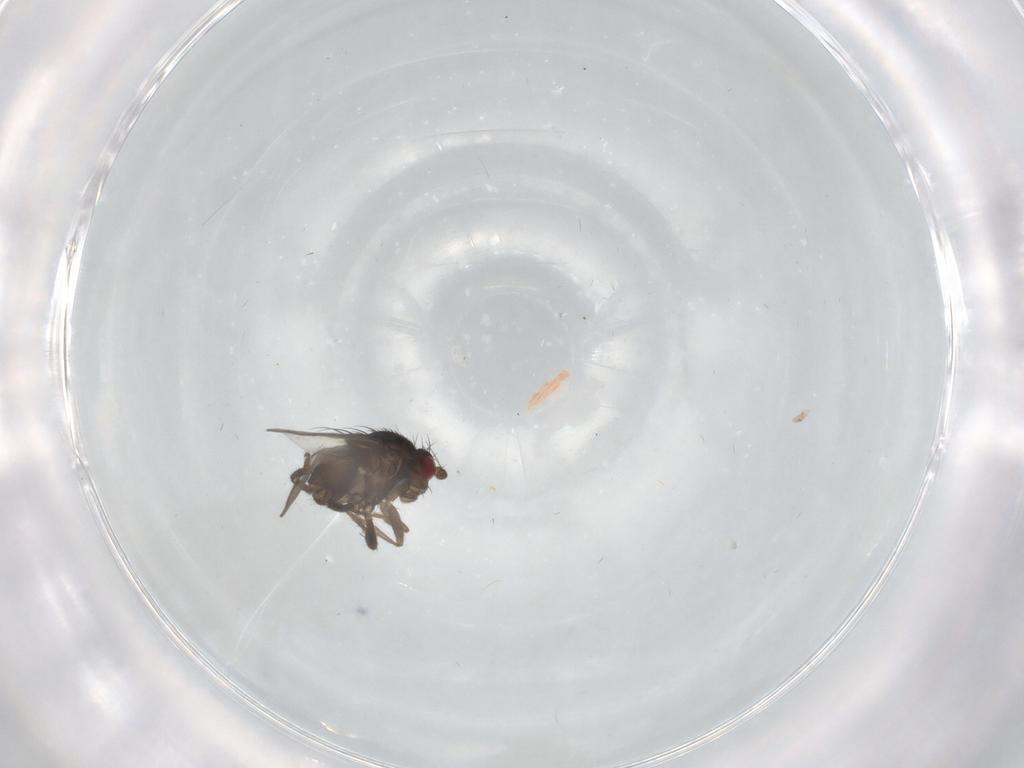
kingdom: Animalia
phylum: Arthropoda
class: Insecta
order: Diptera
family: Sphaeroceridae
